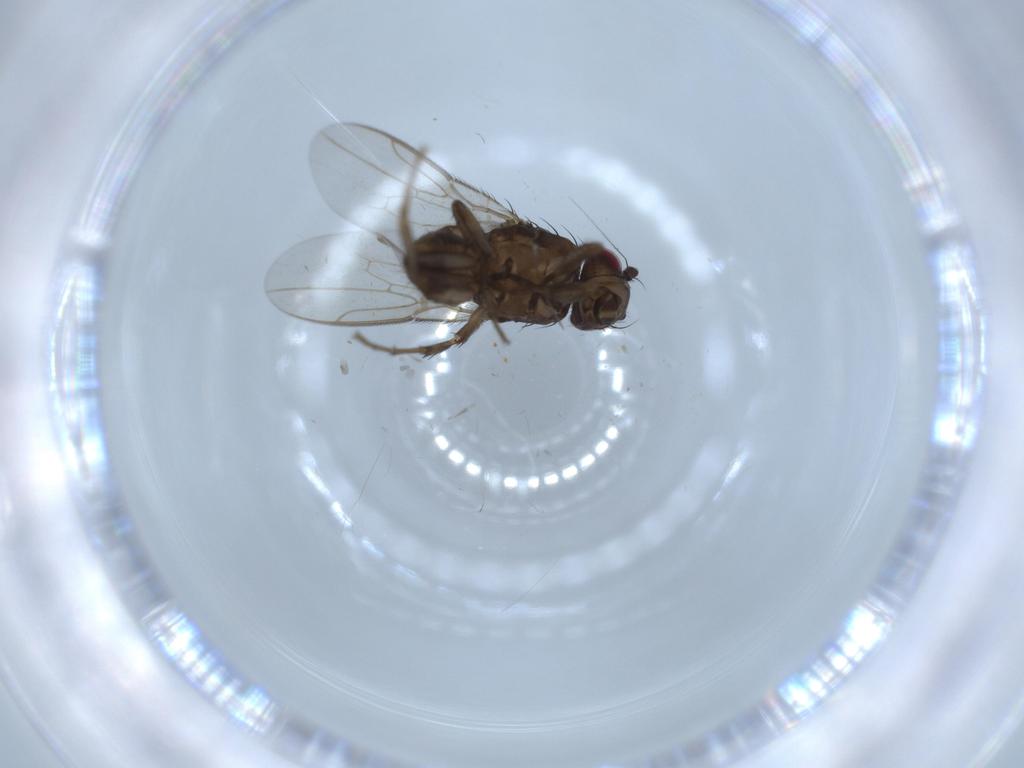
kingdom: Animalia
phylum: Arthropoda
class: Insecta
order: Diptera
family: Sphaeroceridae
